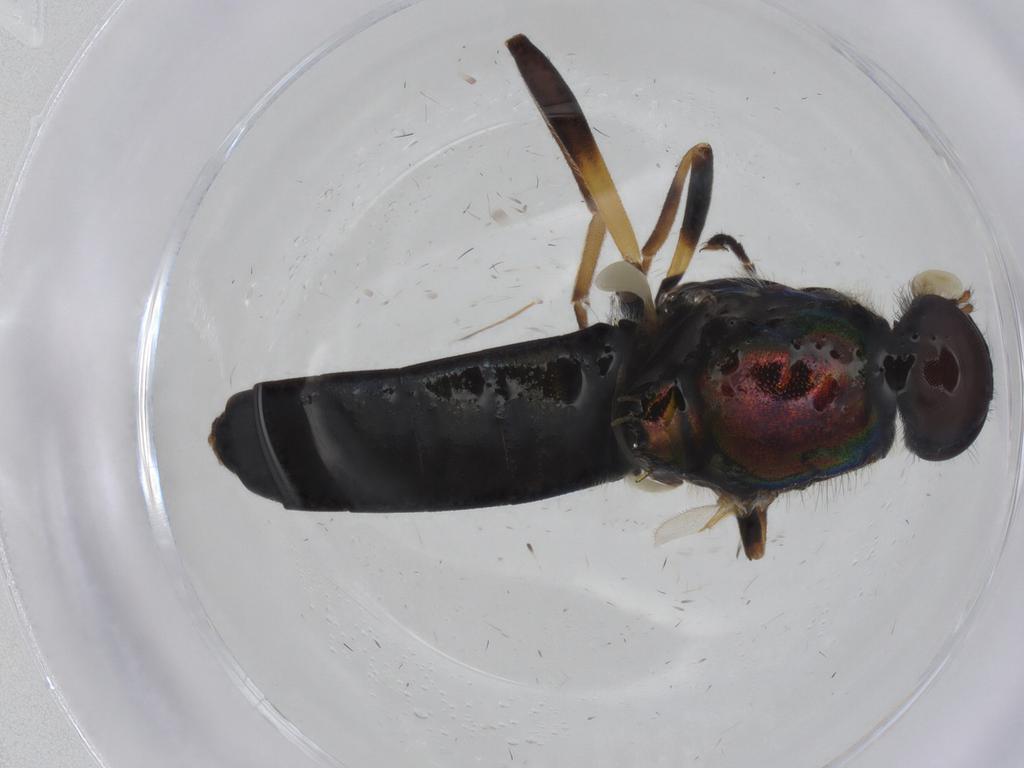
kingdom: Animalia
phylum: Arthropoda
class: Insecta
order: Diptera
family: Stratiomyidae
